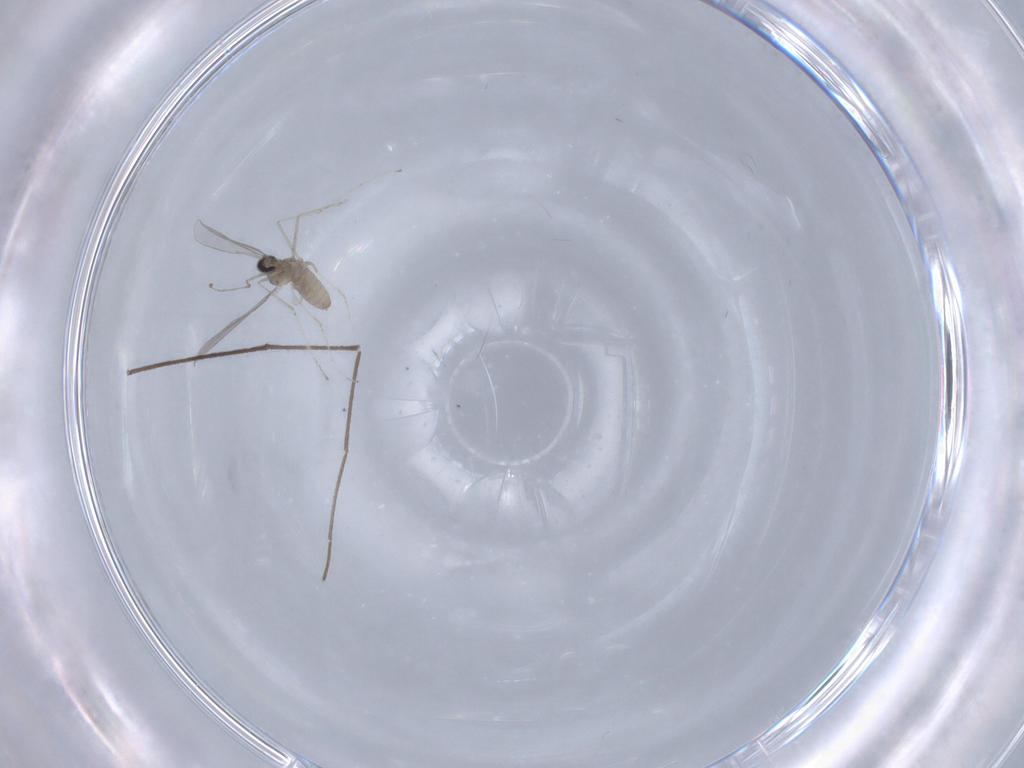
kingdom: Animalia
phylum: Arthropoda
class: Insecta
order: Diptera
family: Chironomidae
